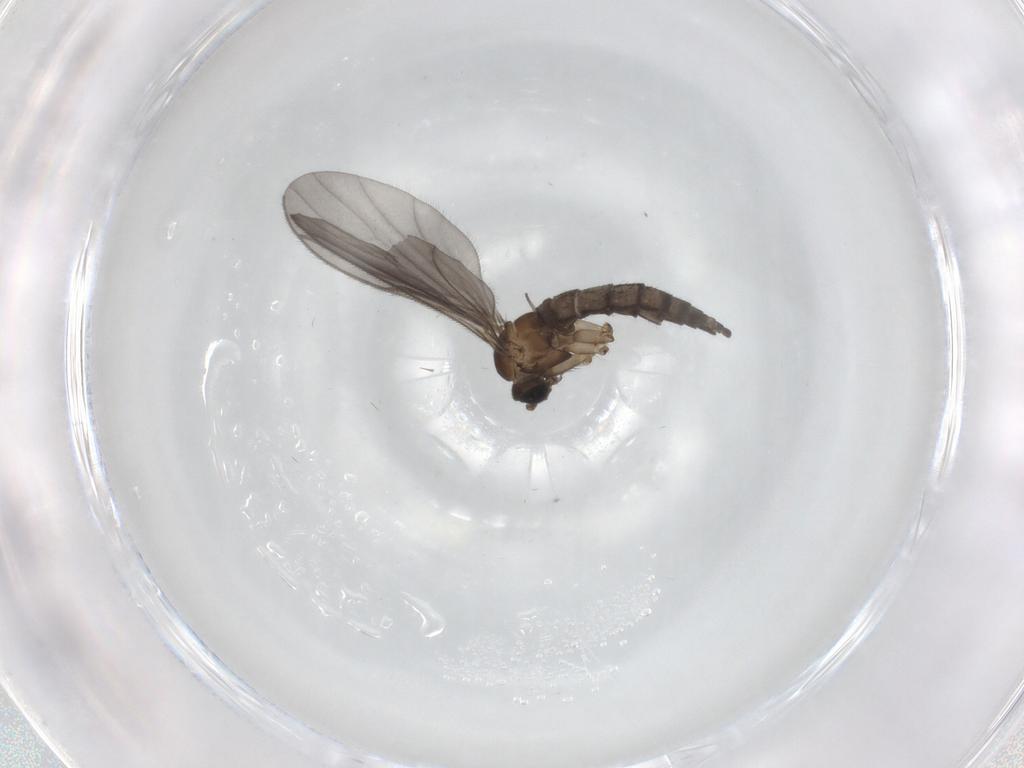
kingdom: Animalia
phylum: Arthropoda
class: Insecta
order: Diptera
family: Sciaridae
